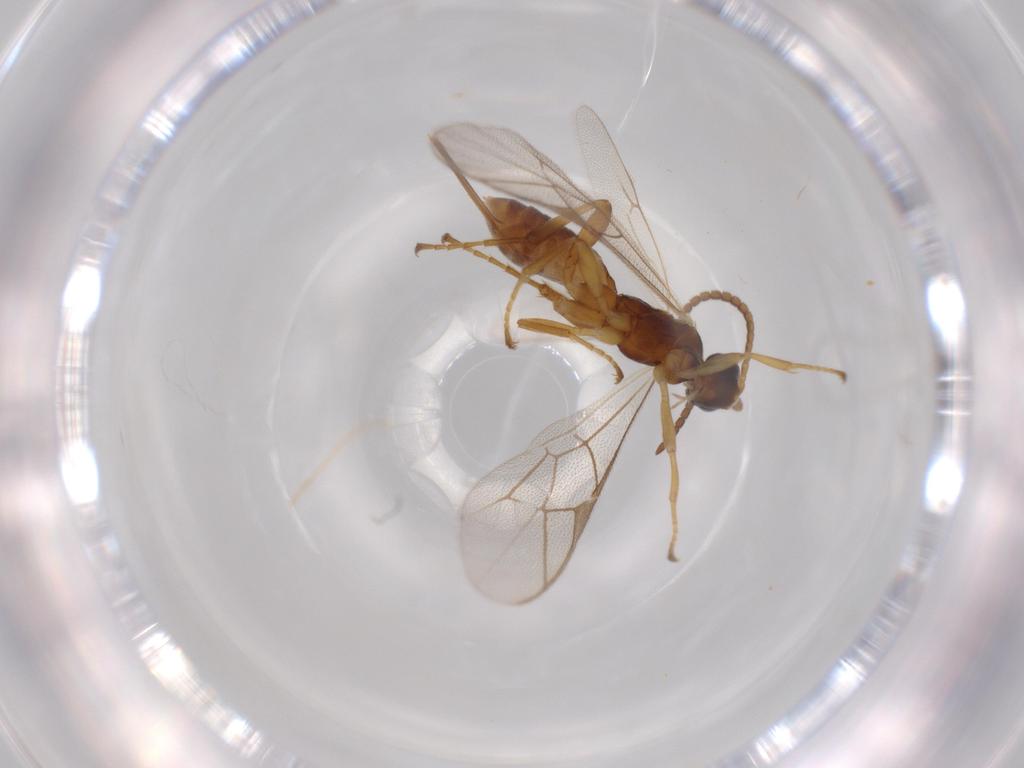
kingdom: Animalia
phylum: Arthropoda
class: Insecta
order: Hymenoptera
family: Ichneumonidae
